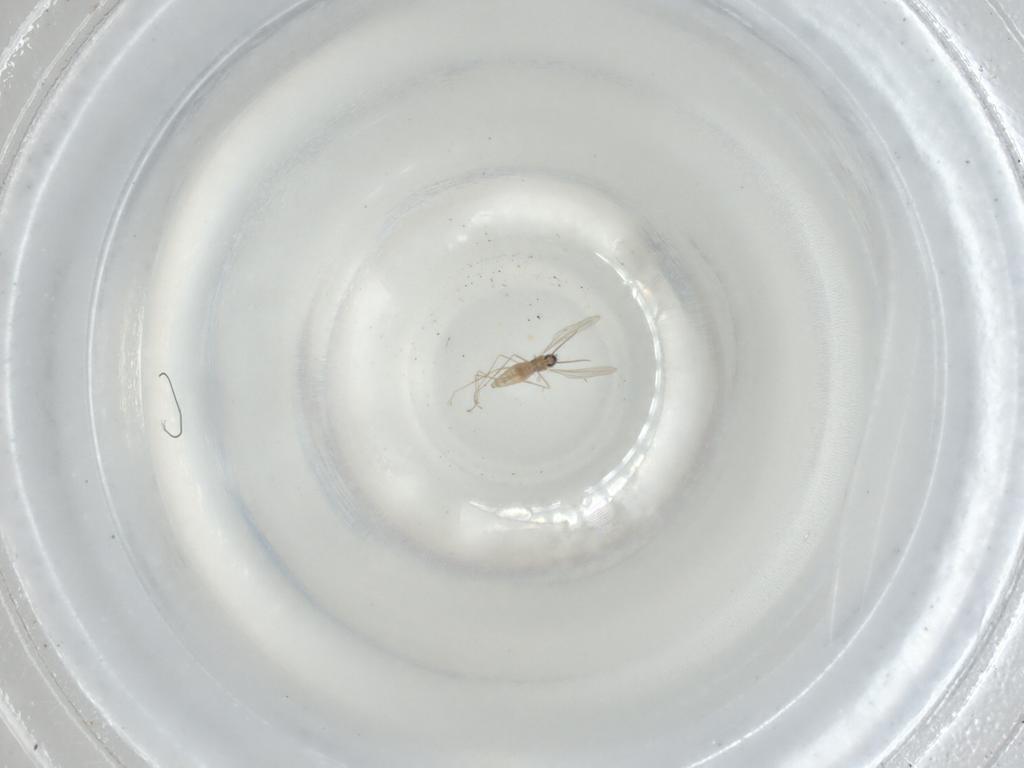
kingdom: Animalia
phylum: Arthropoda
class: Insecta
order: Diptera
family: Cecidomyiidae
